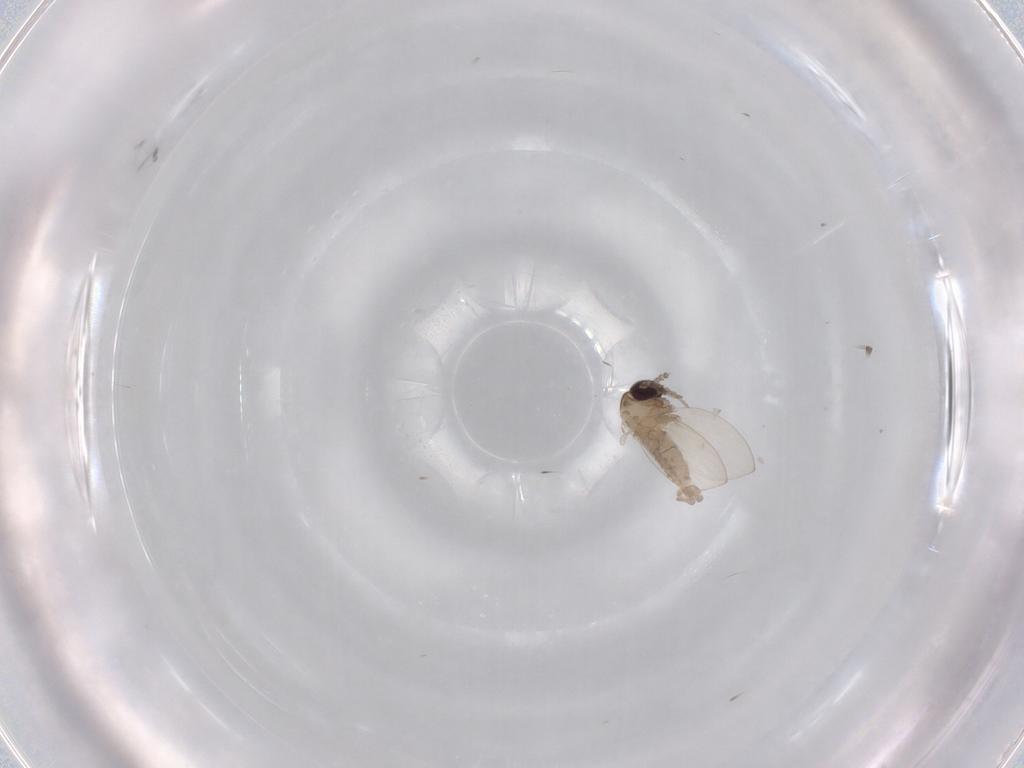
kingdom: Animalia
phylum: Arthropoda
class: Insecta
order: Diptera
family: Psychodidae
